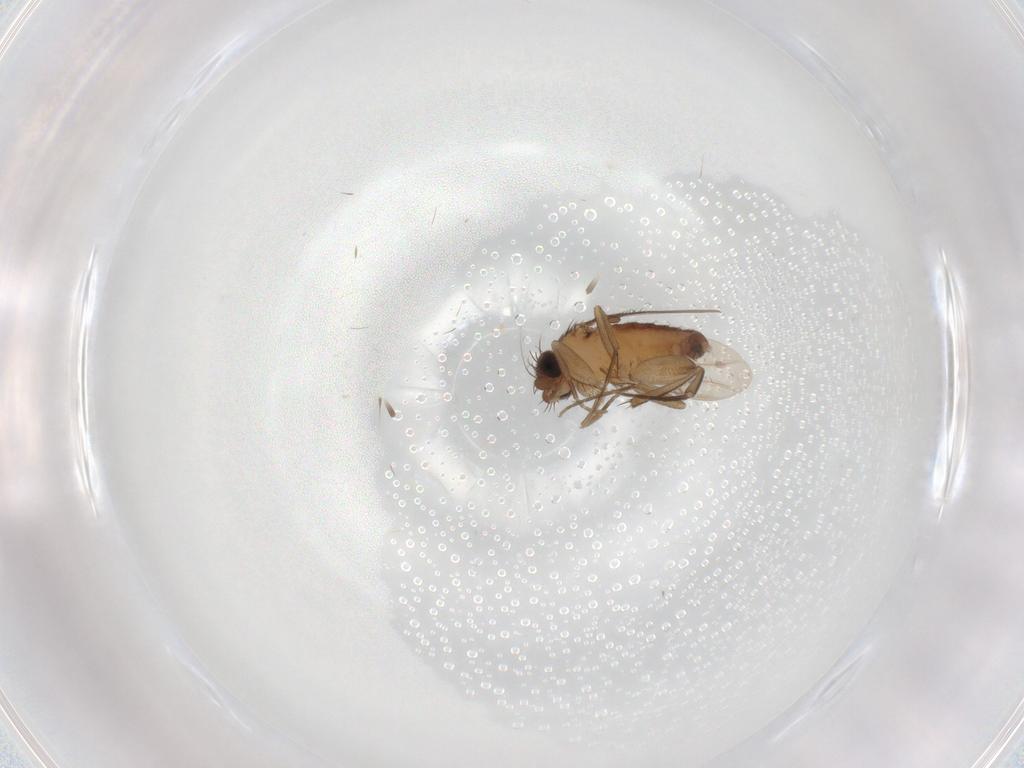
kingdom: Animalia
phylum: Arthropoda
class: Insecta
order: Diptera
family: Phoridae
